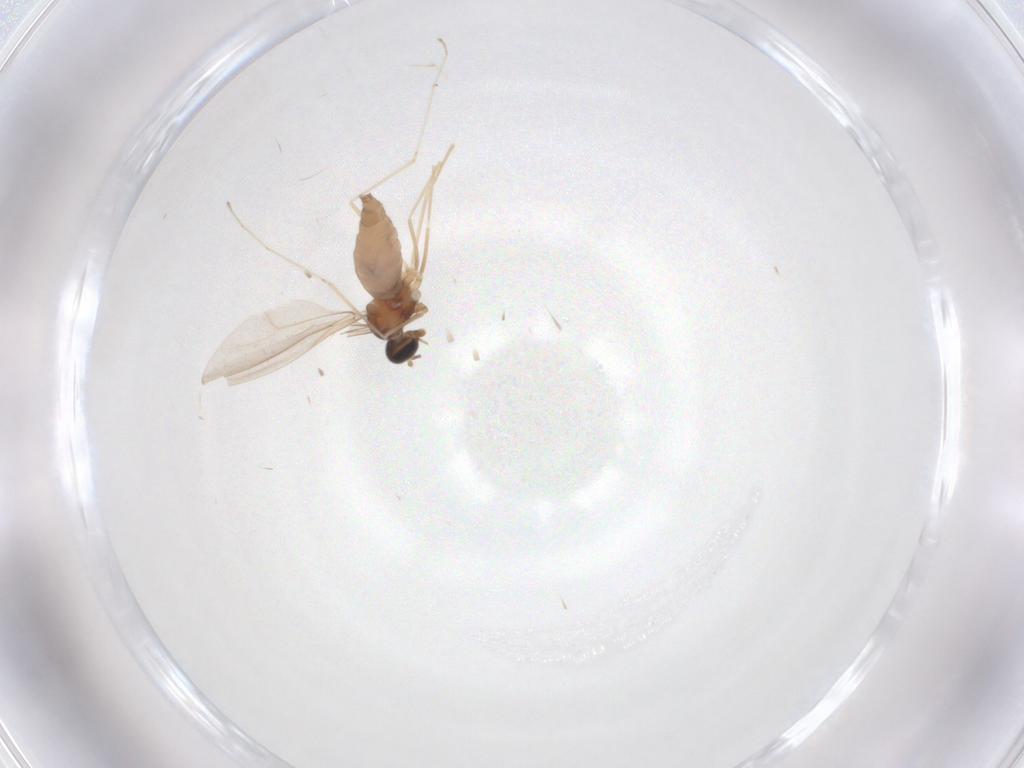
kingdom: Animalia
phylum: Arthropoda
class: Insecta
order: Diptera
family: Cecidomyiidae
